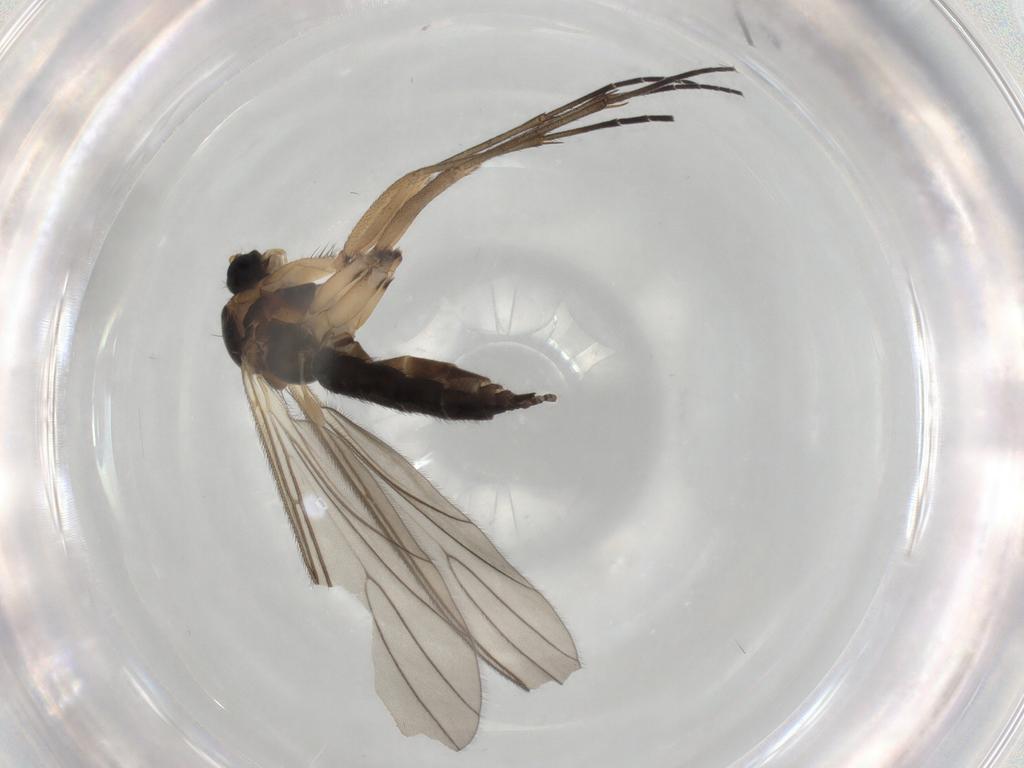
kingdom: Animalia
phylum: Arthropoda
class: Insecta
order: Diptera
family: Sciaridae
